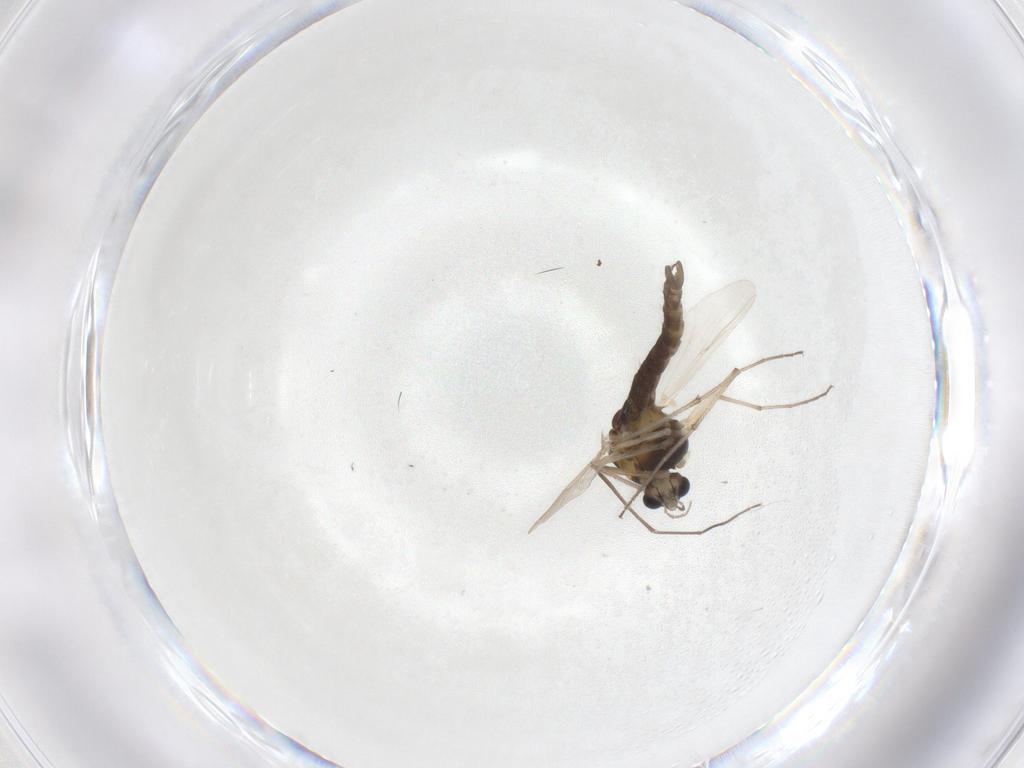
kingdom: Animalia
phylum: Arthropoda
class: Insecta
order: Diptera
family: Chironomidae
